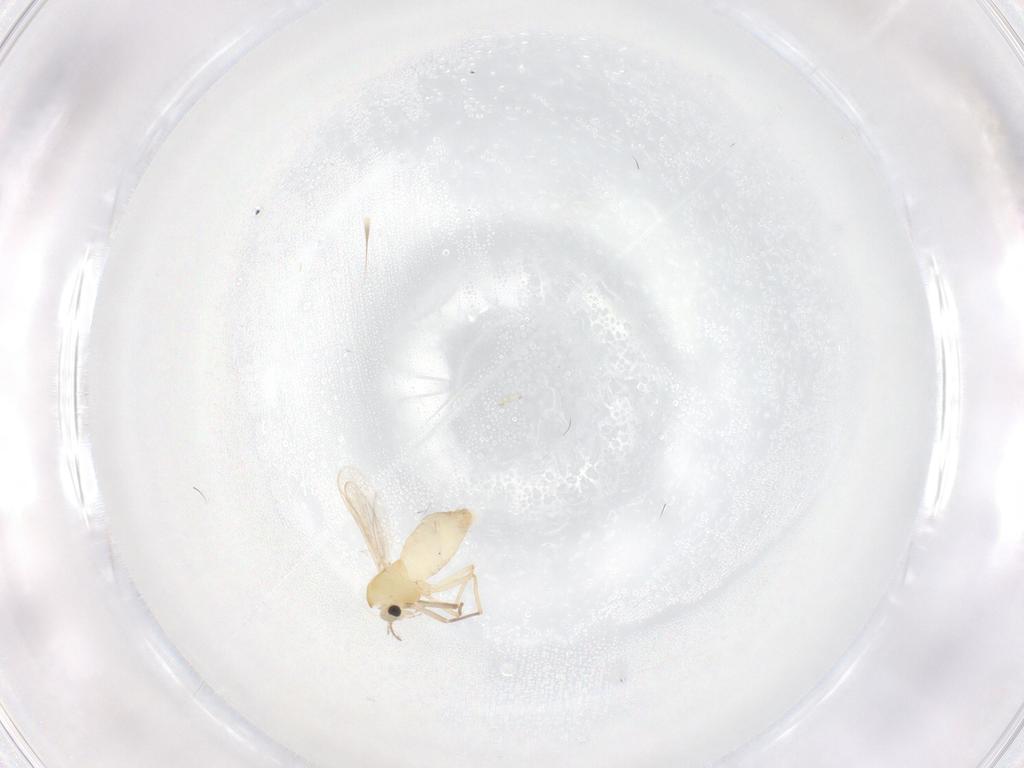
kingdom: Animalia
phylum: Arthropoda
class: Insecta
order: Diptera
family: Chironomidae
